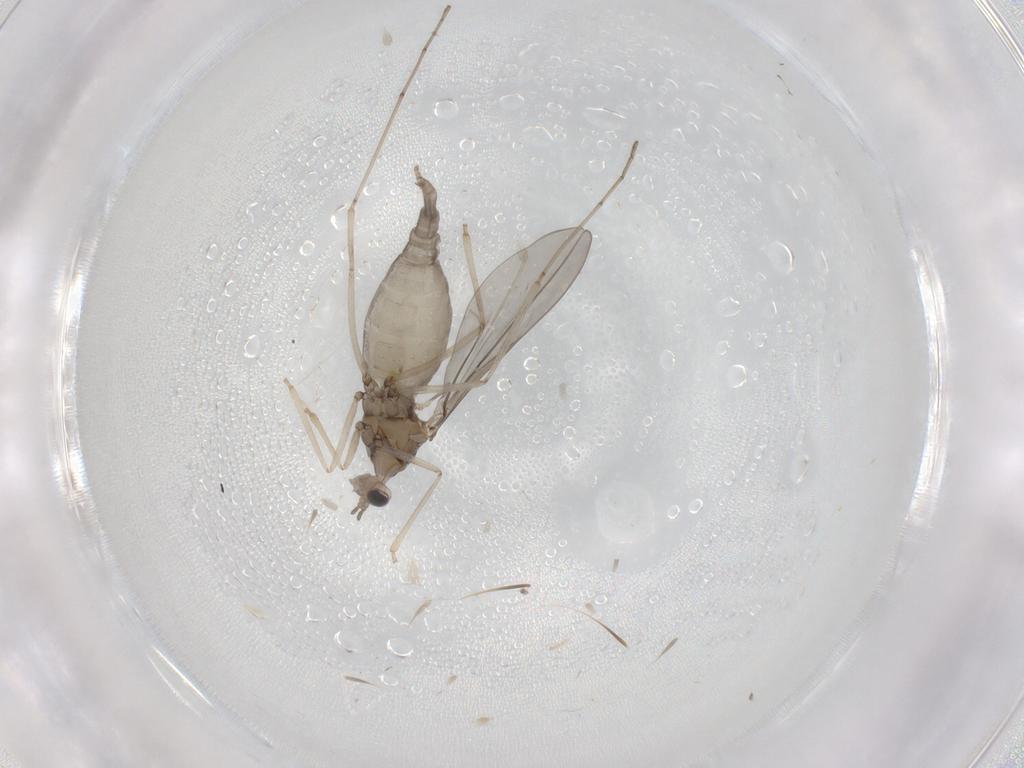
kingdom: Animalia
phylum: Arthropoda
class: Insecta
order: Diptera
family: Cecidomyiidae
